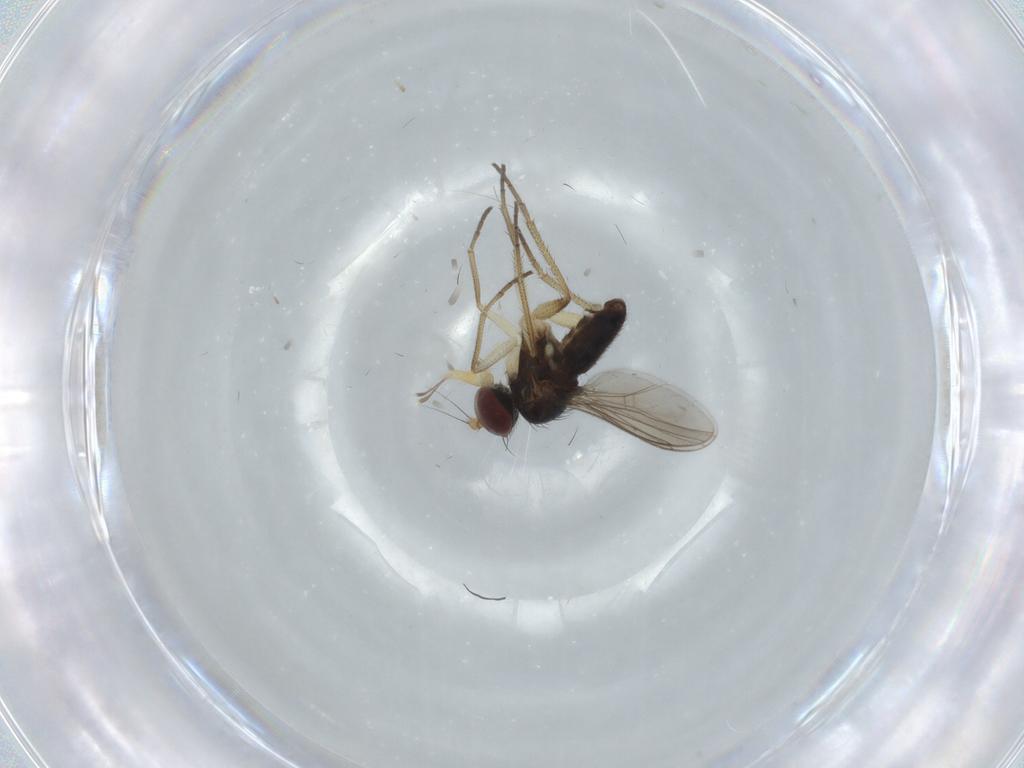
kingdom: Animalia
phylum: Arthropoda
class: Insecta
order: Diptera
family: Dolichopodidae
